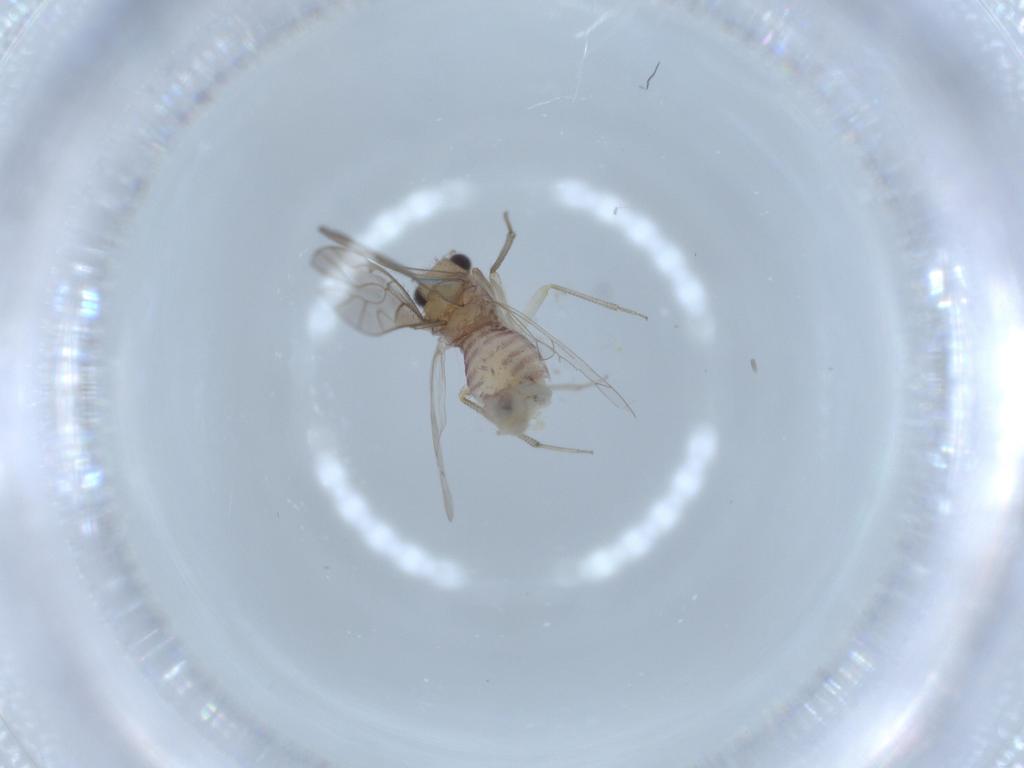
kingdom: Animalia
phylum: Arthropoda
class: Insecta
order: Psocodea
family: Caeciliusidae
